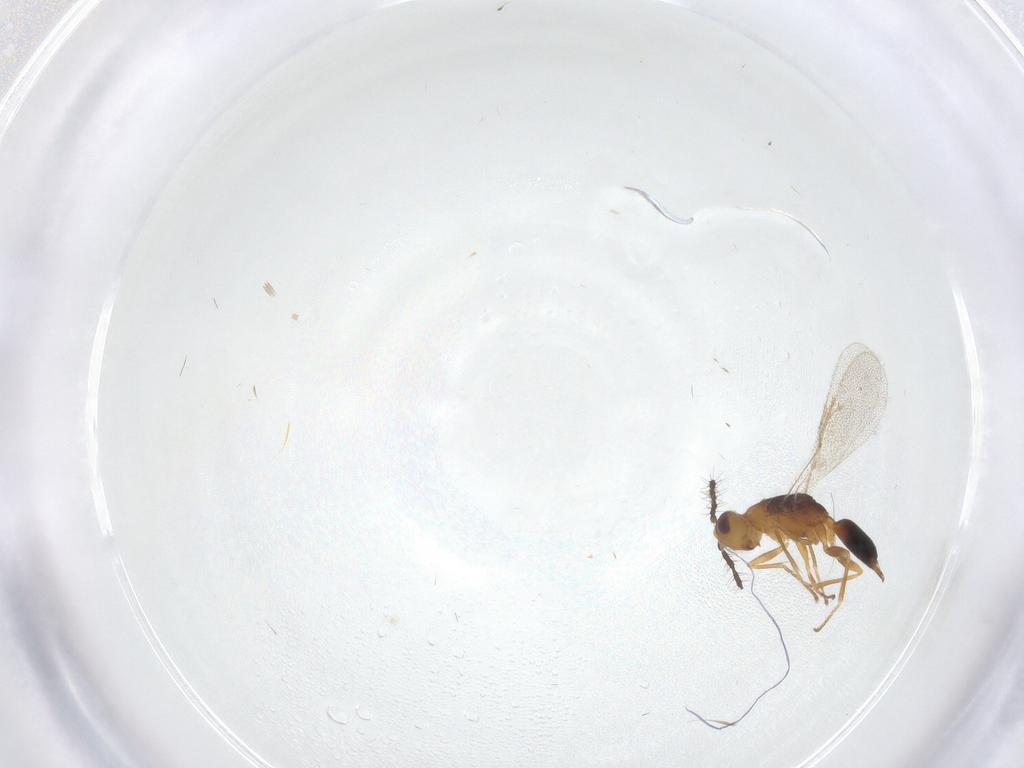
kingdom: Animalia
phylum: Arthropoda
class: Insecta
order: Hymenoptera
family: Eurytomidae
